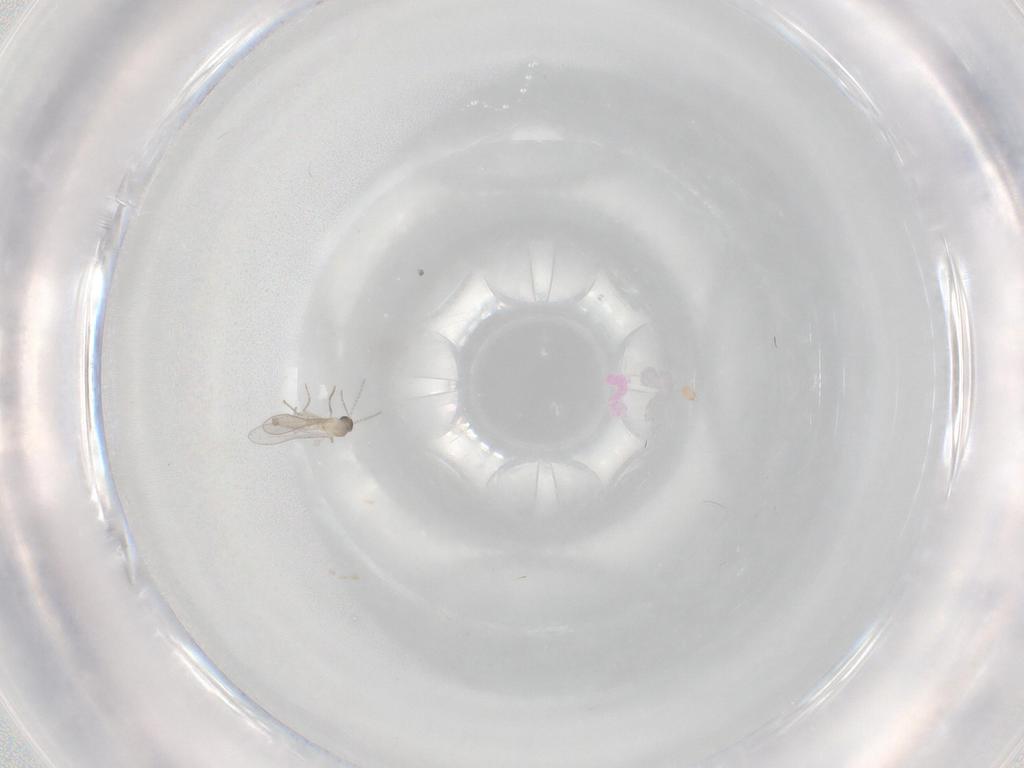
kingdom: Animalia
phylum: Arthropoda
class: Insecta
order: Diptera
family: Cecidomyiidae
